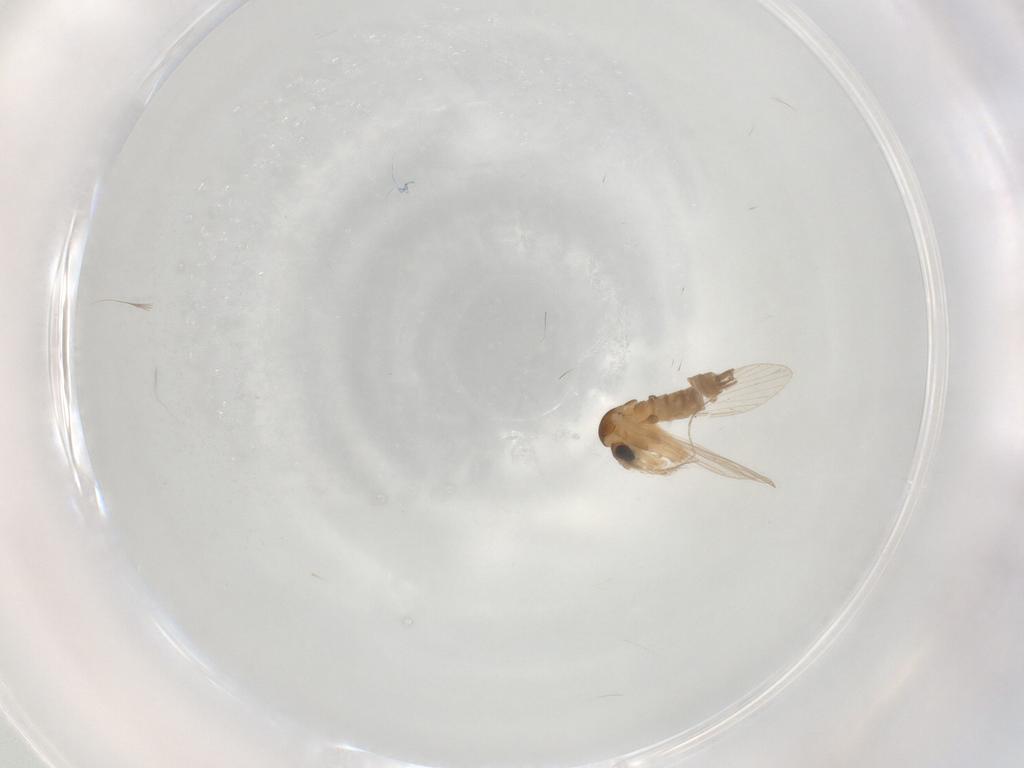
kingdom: Animalia
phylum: Arthropoda
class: Insecta
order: Diptera
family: Psychodidae
